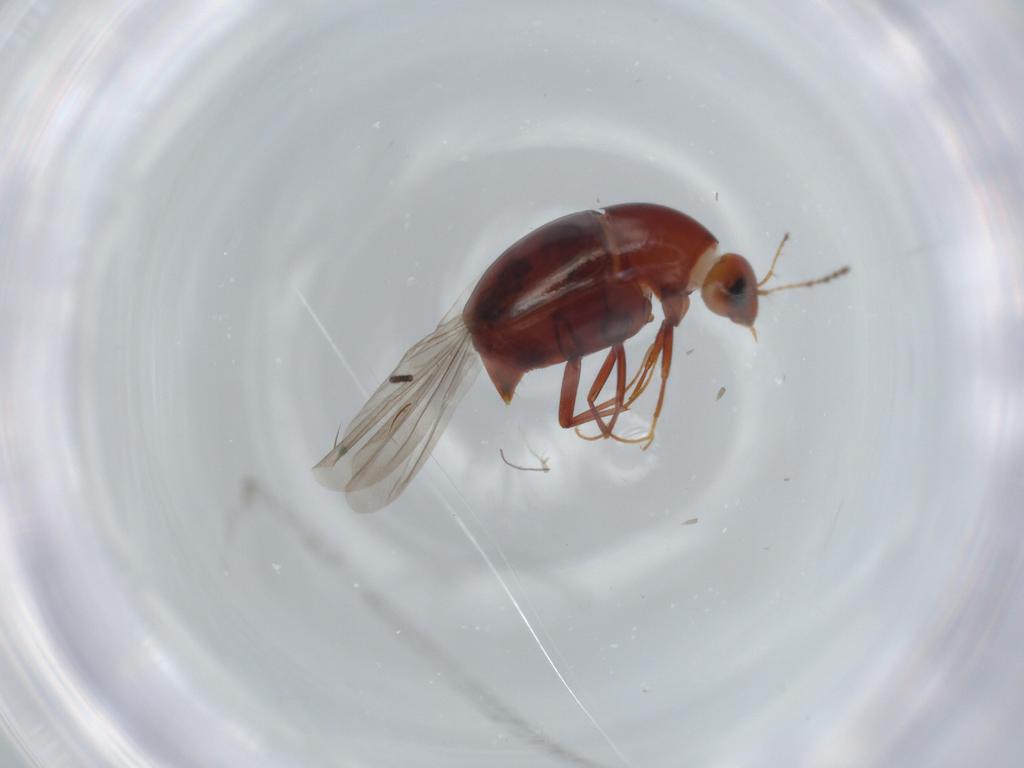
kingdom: Animalia
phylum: Arthropoda
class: Insecta
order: Coleoptera
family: Staphylinidae
